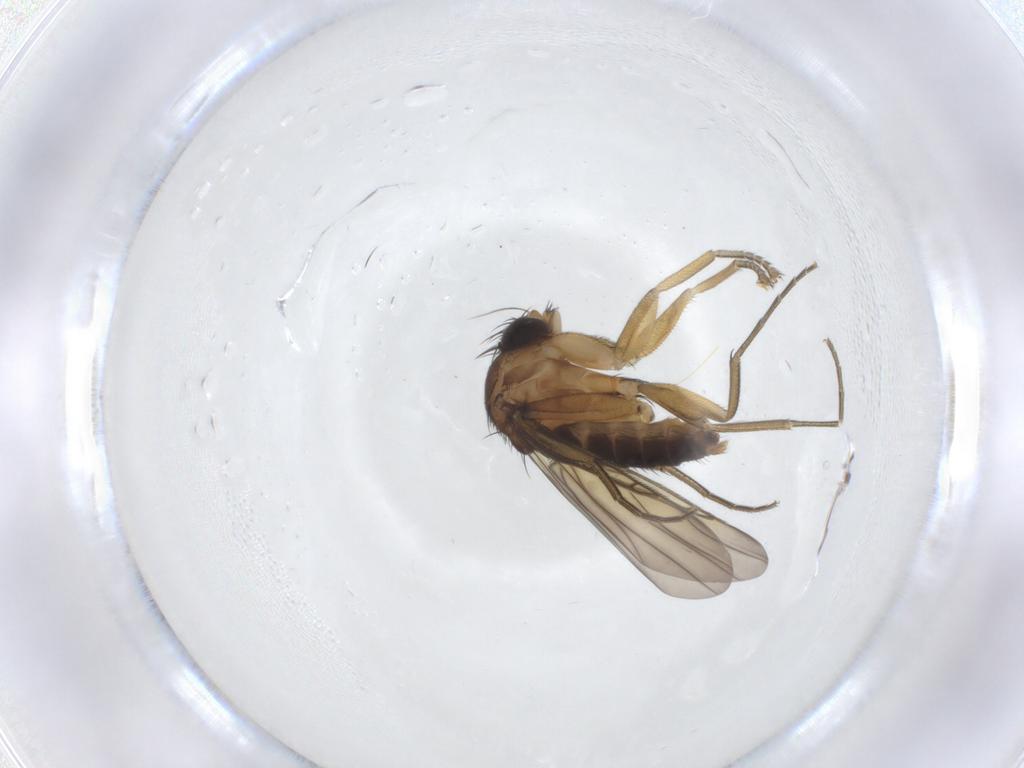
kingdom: Animalia
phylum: Arthropoda
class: Insecta
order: Diptera
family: Phoridae
